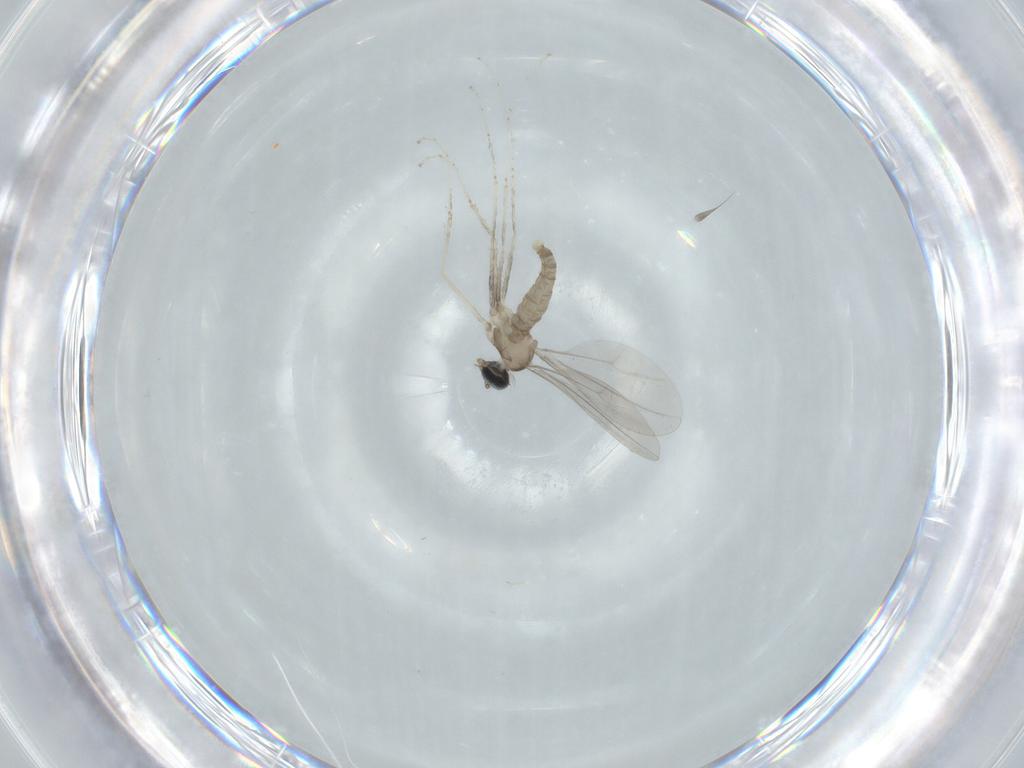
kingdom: Animalia
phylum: Arthropoda
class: Insecta
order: Diptera
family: Cecidomyiidae
